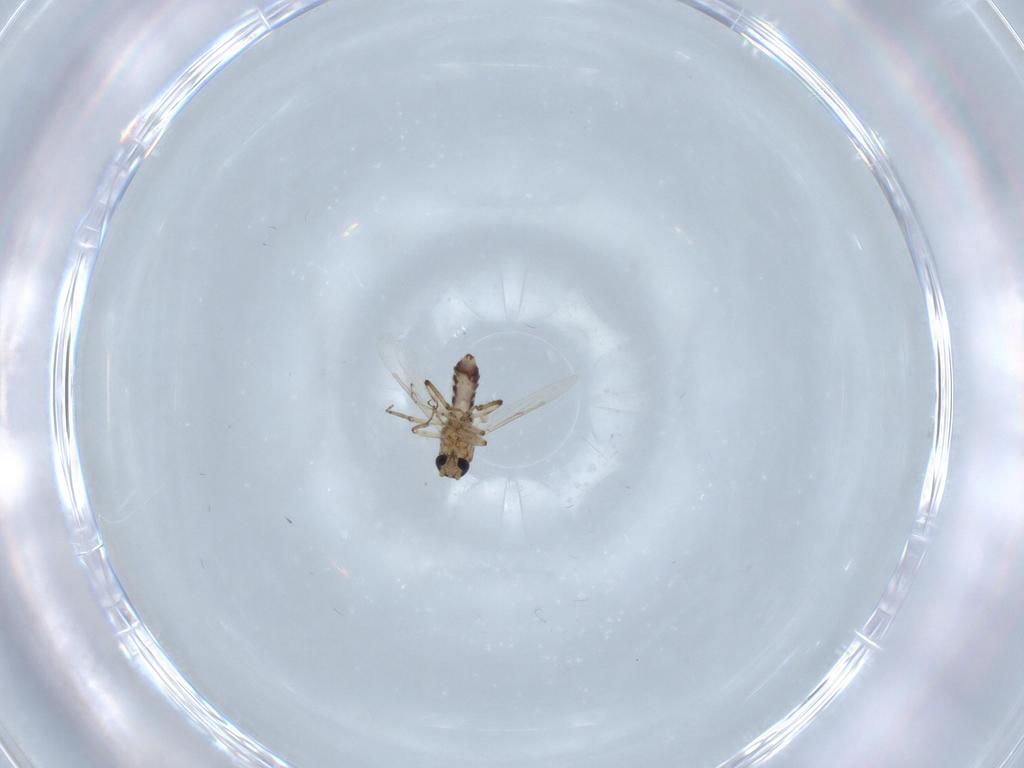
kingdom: Animalia
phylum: Arthropoda
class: Insecta
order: Diptera
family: Ceratopogonidae
